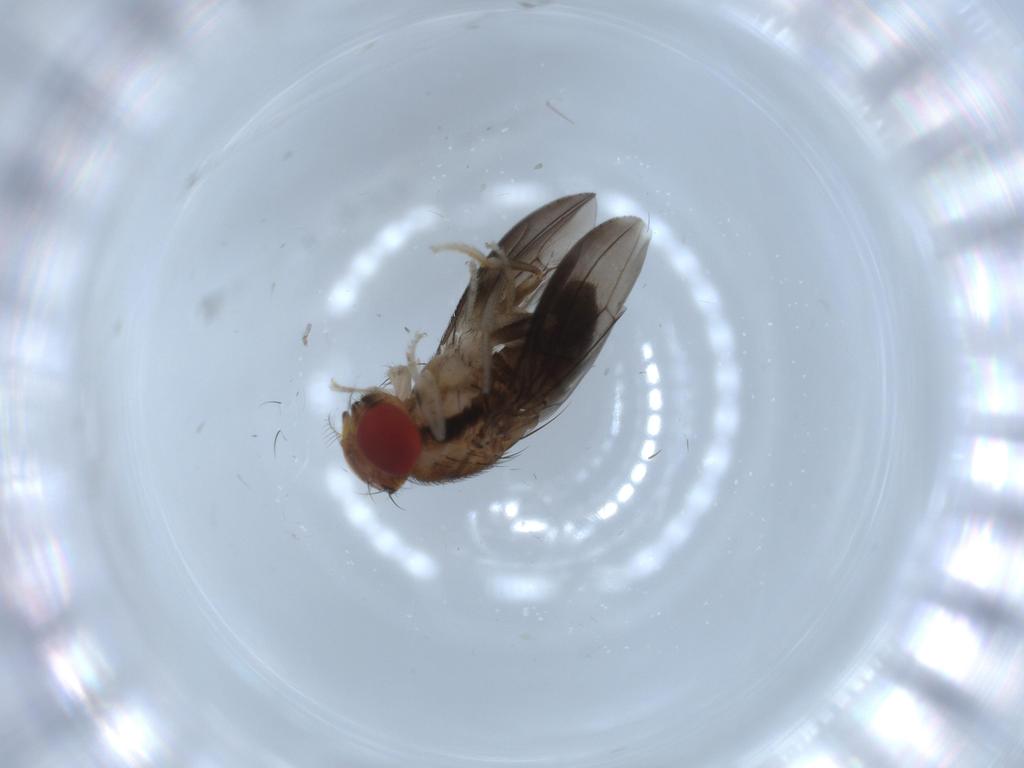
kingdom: Animalia
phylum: Arthropoda
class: Insecta
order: Diptera
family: Drosophilidae
